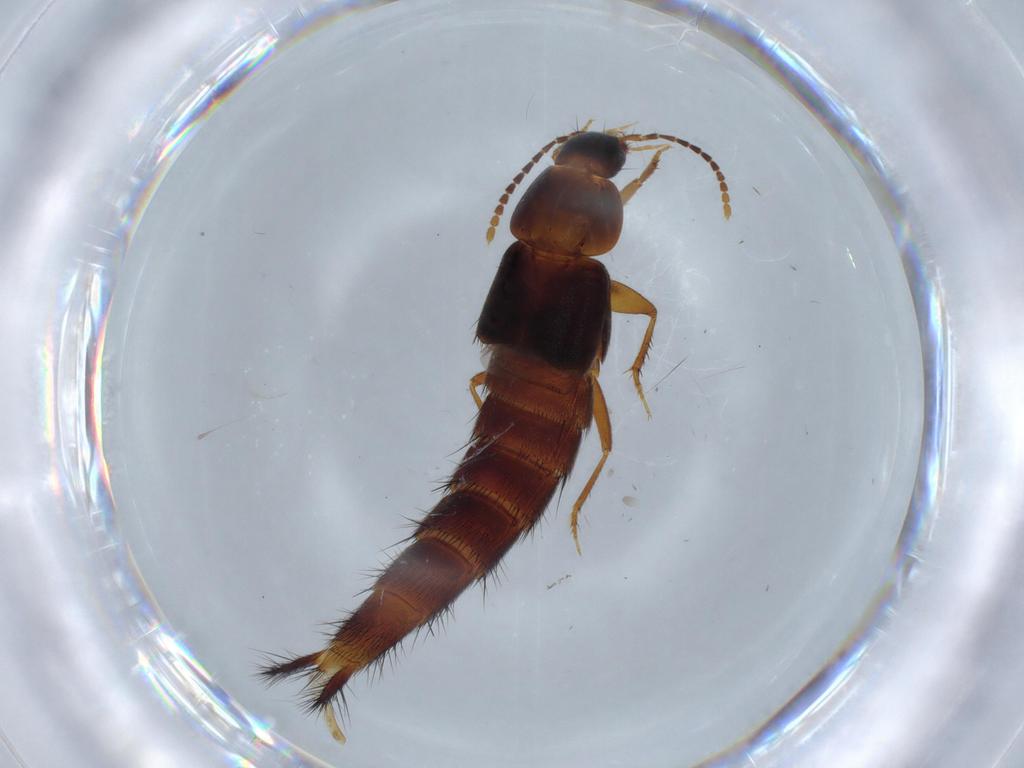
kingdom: Animalia
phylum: Arthropoda
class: Insecta
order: Coleoptera
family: Staphylinidae
